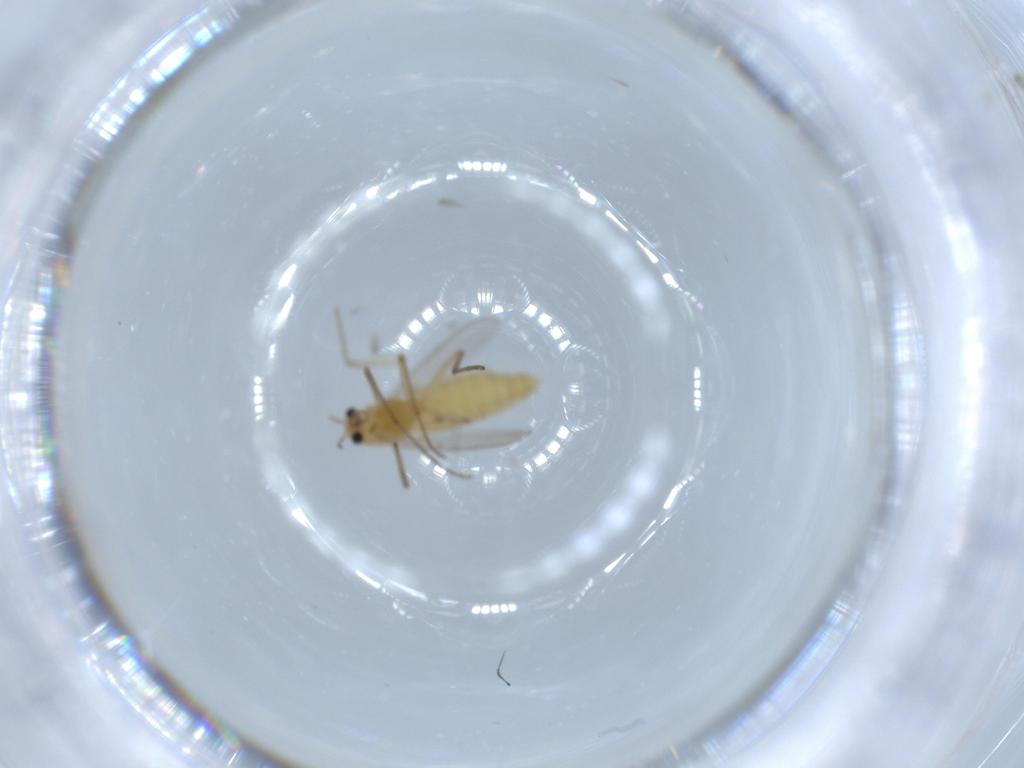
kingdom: Animalia
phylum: Arthropoda
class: Insecta
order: Diptera
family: Chironomidae
